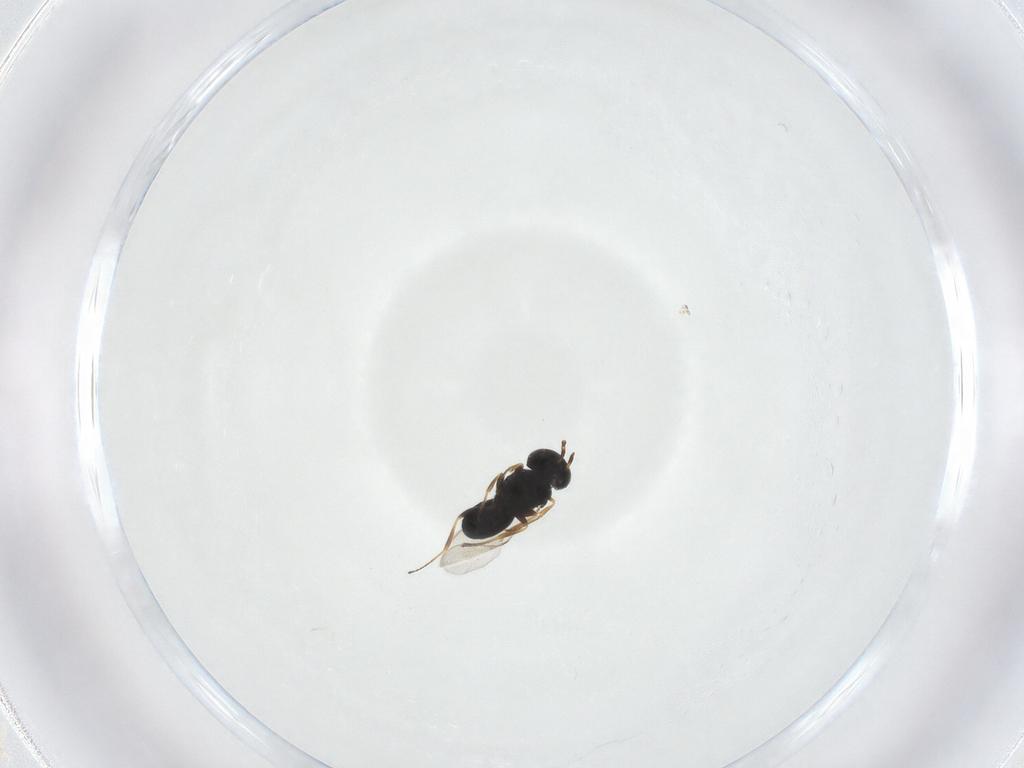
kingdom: Animalia
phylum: Arthropoda
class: Insecta
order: Hymenoptera
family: Scelionidae
